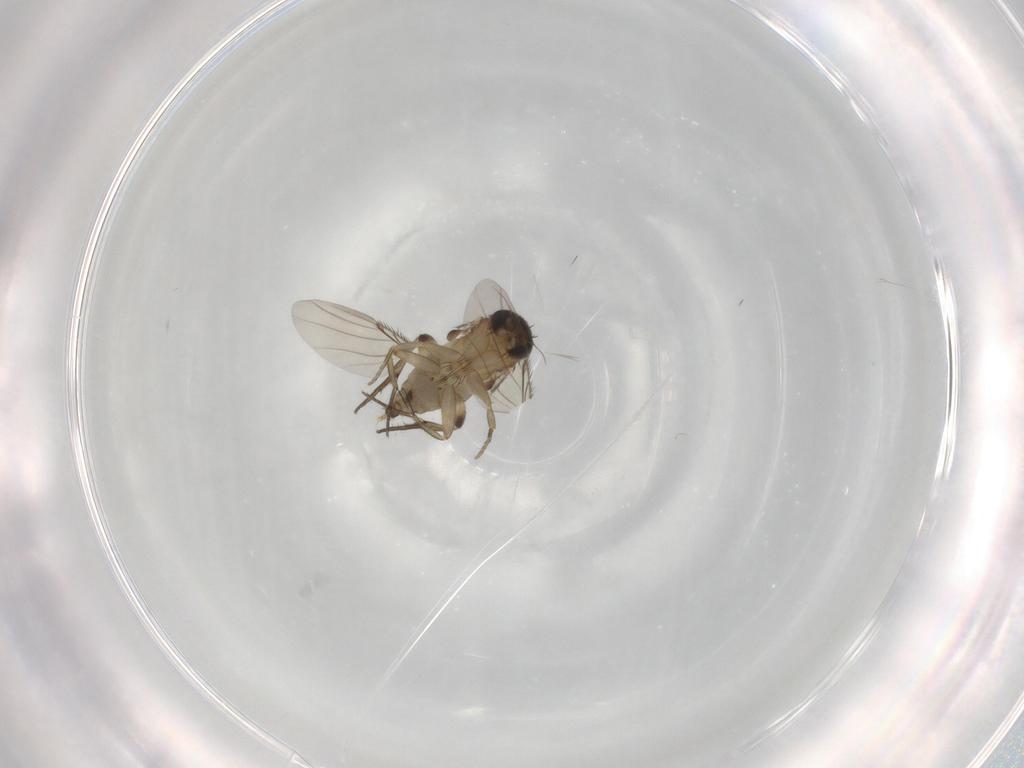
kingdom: Animalia
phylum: Arthropoda
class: Insecta
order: Diptera
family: Phoridae
